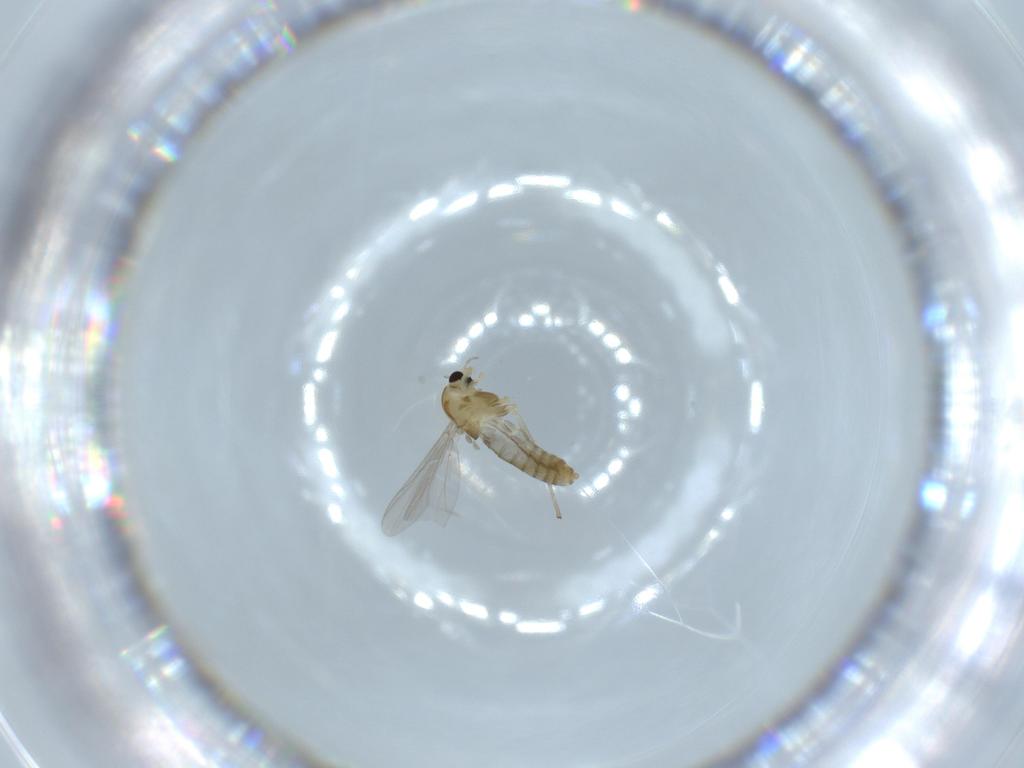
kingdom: Animalia
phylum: Arthropoda
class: Insecta
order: Diptera
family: Chironomidae
